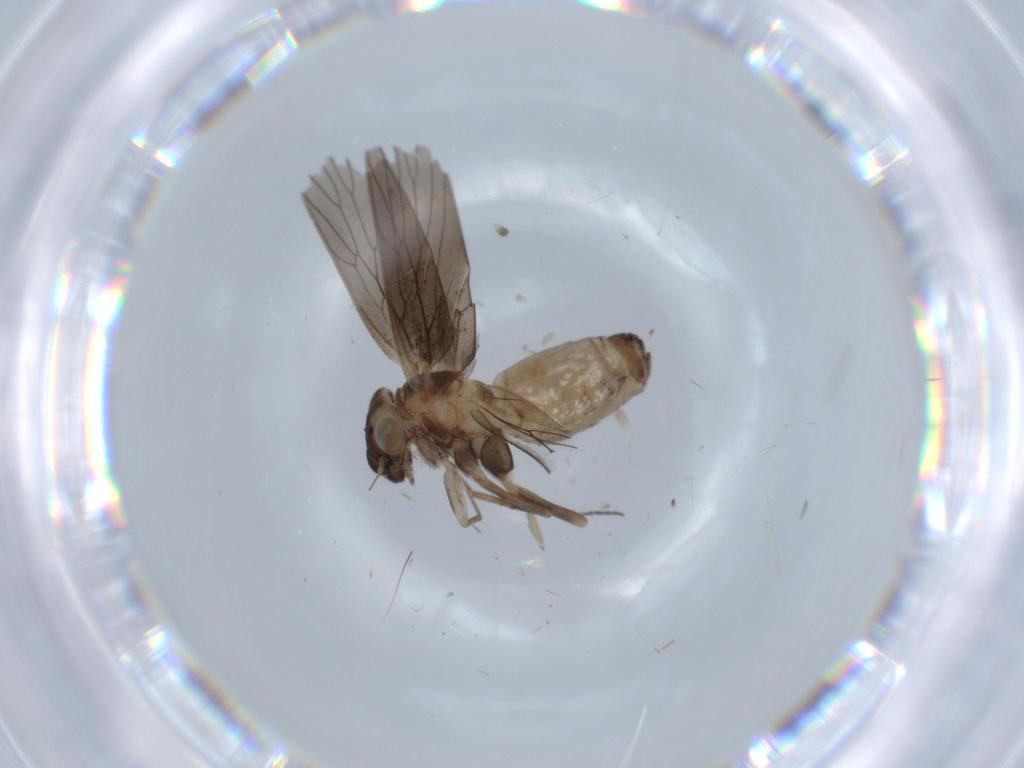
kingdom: Animalia
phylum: Arthropoda
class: Insecta
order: Psocodea
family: Lepidopsocidae
